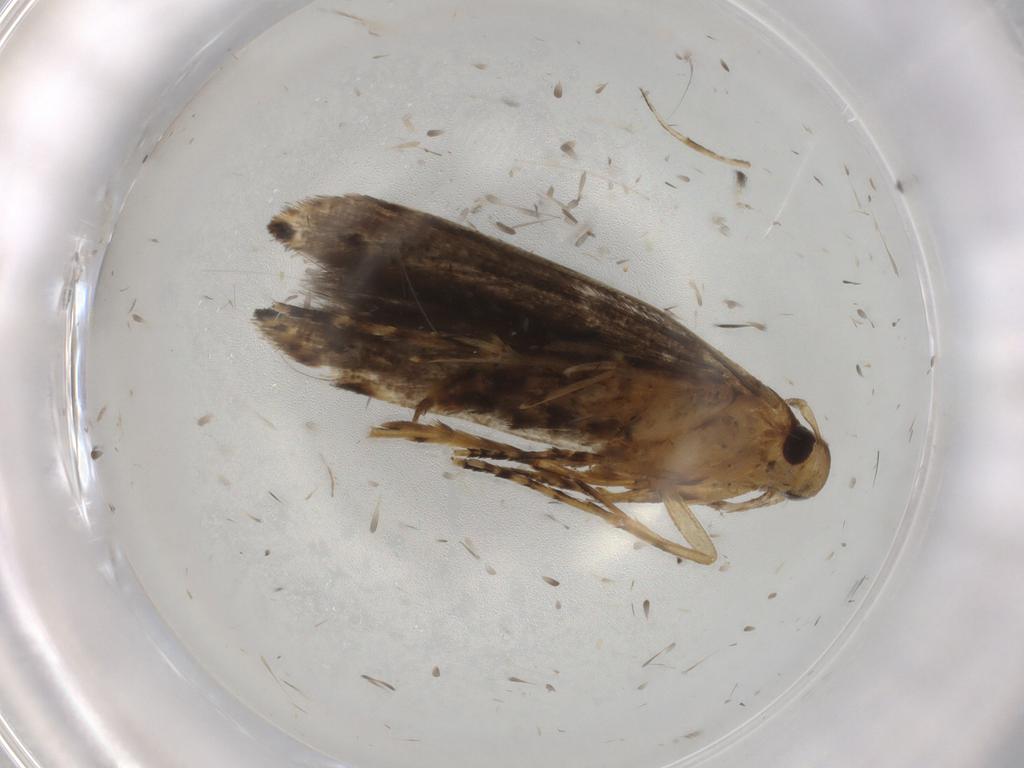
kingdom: Animalia
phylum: Arthropoda
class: Insecta
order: Lepidoptera
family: Cosmopterigidae
